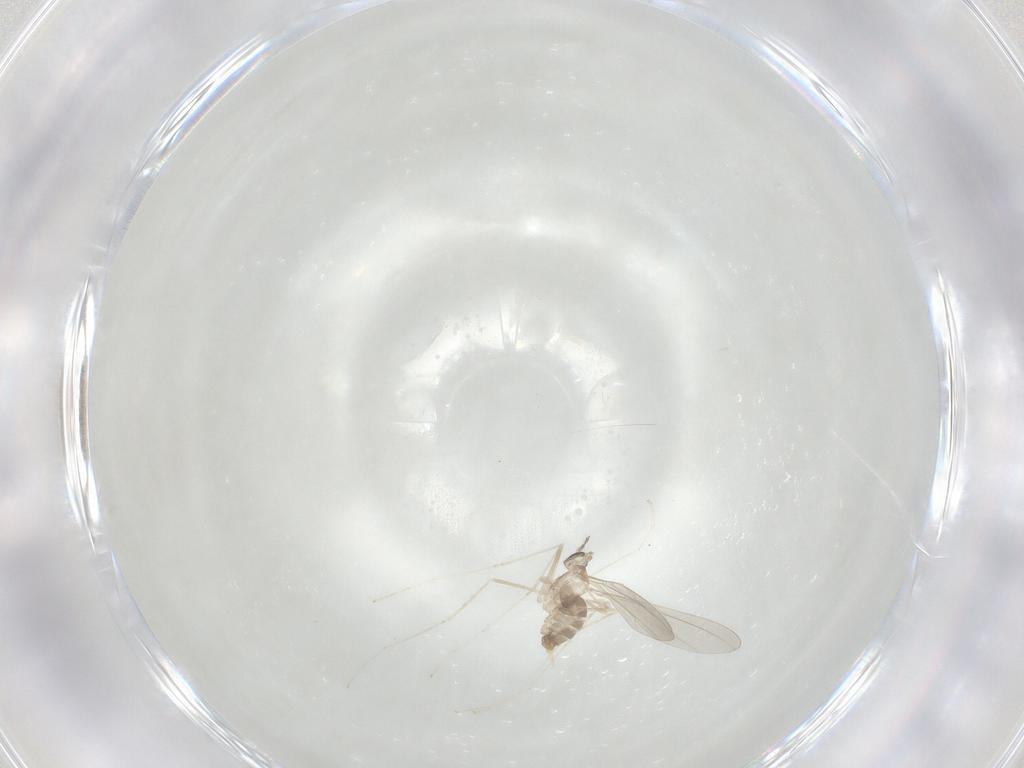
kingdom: Animalia
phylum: Arthropoda
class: Insecta
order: Diptera
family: Cecidomyiidae
